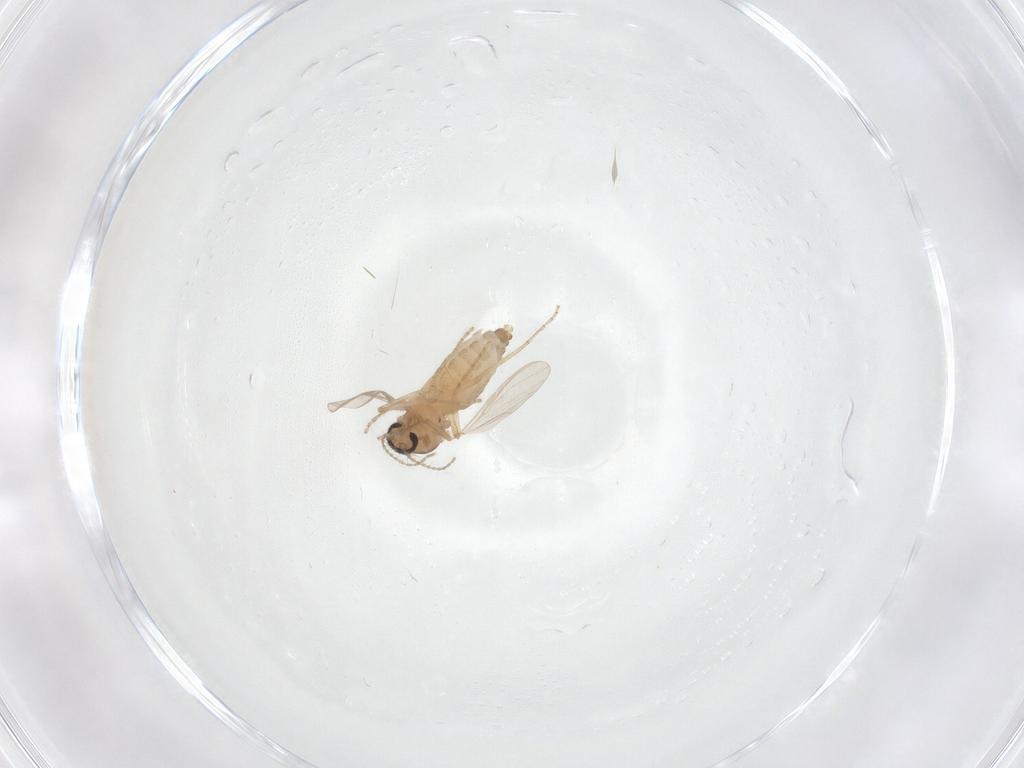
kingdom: Animalia
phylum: Arthropoda
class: Insecta
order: Diptera
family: Ceratopogonidae
